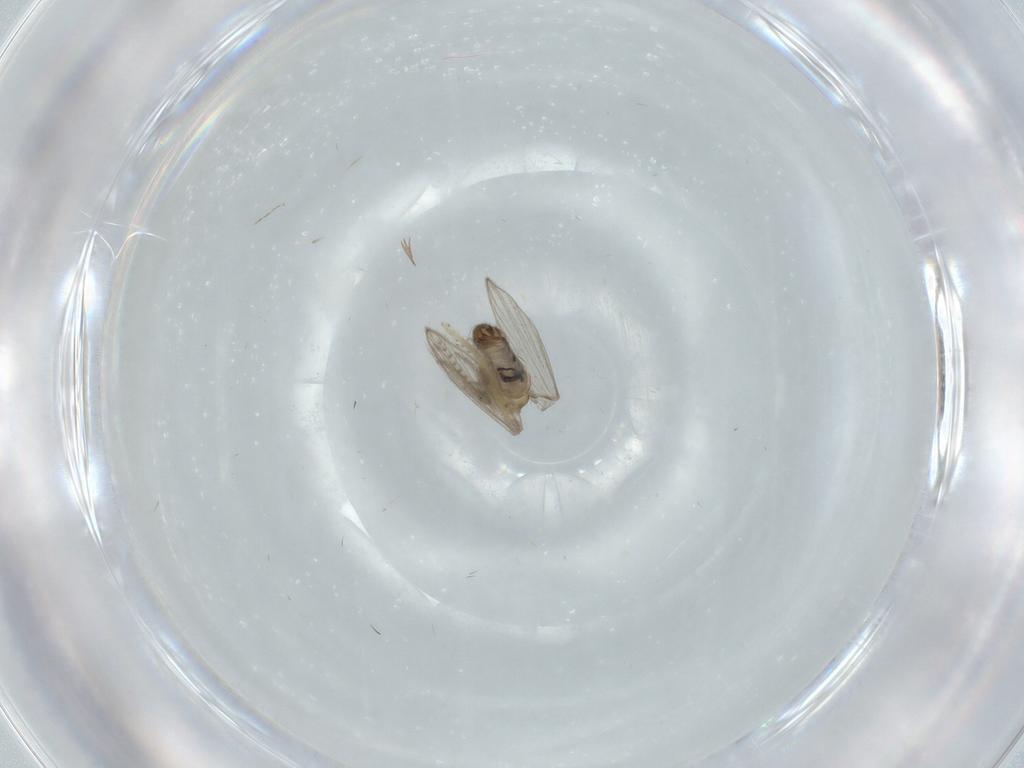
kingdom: Animalia
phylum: Arthropoda
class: Insecta
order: Diptera
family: Psychodidae
